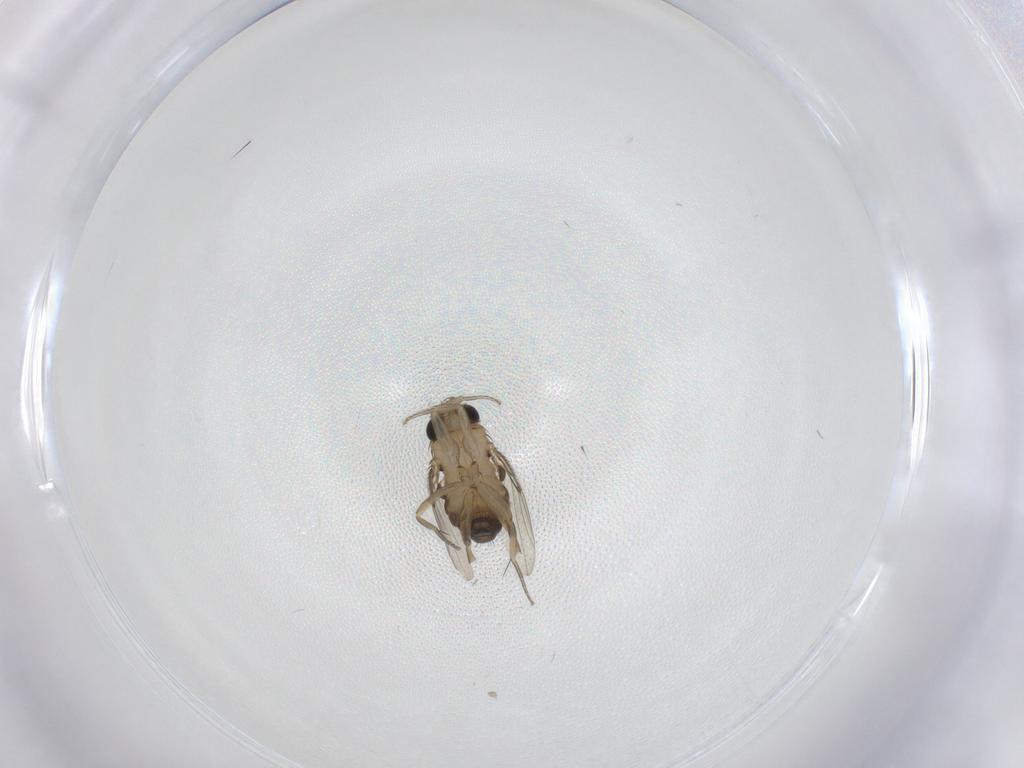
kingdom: Animalia
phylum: Arthropoda
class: Insecta
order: Diptera
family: Phoridae
